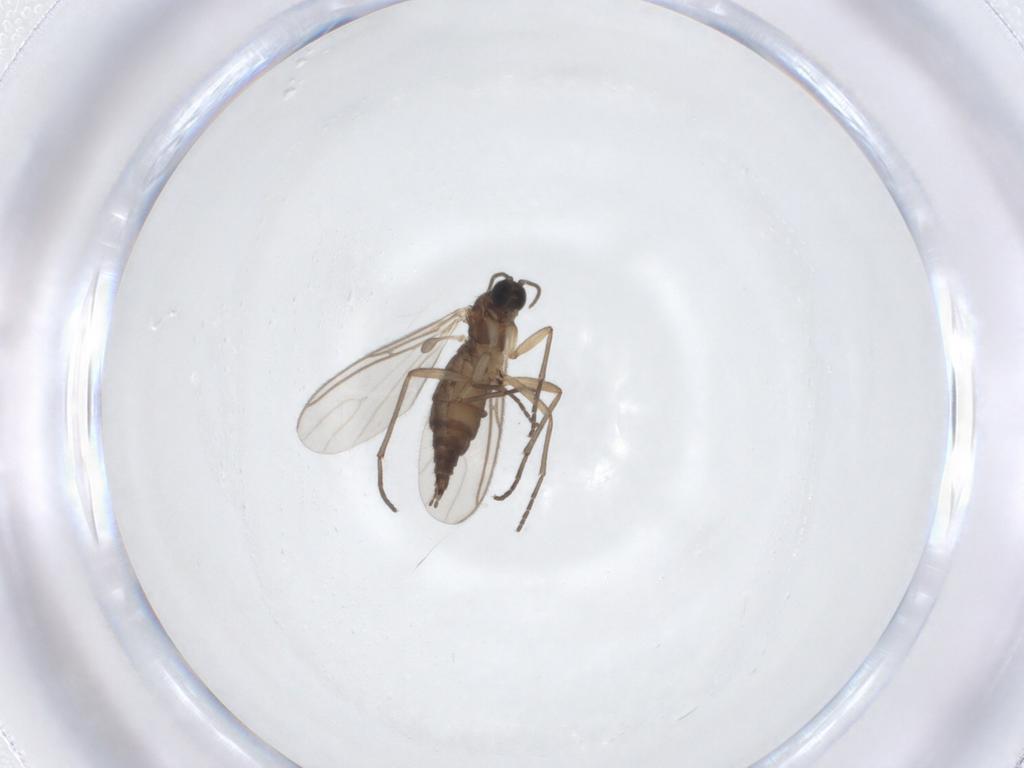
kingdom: Animalia
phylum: Arthropoda
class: Insecta
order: Diptera
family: Sciaridae
